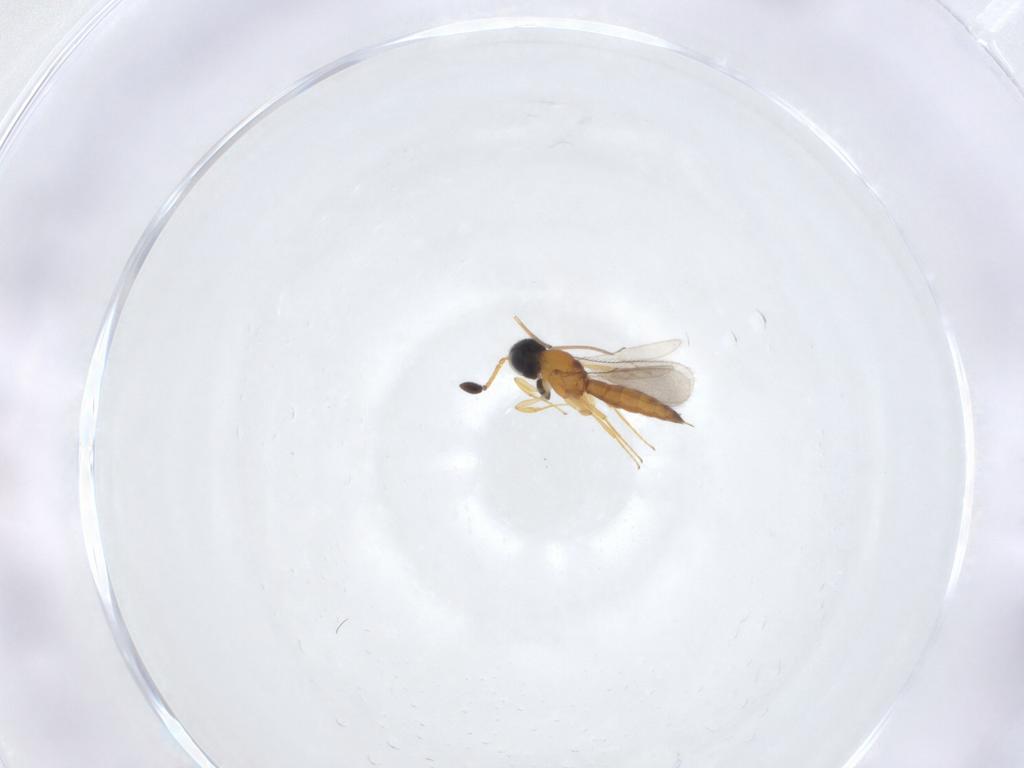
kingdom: Animalia
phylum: Arthropoda
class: Insecta
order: Hymenoptera
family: Scelionidae
